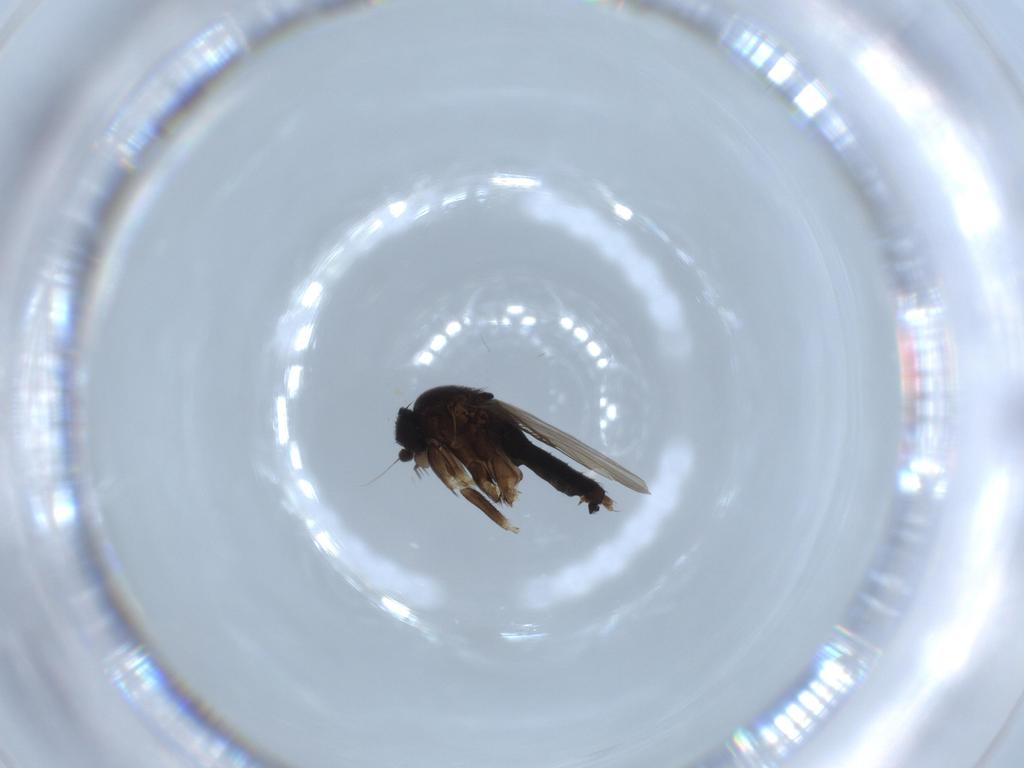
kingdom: Animalia
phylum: Arthropoda
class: Insecta
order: Diptera
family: Phoridae
